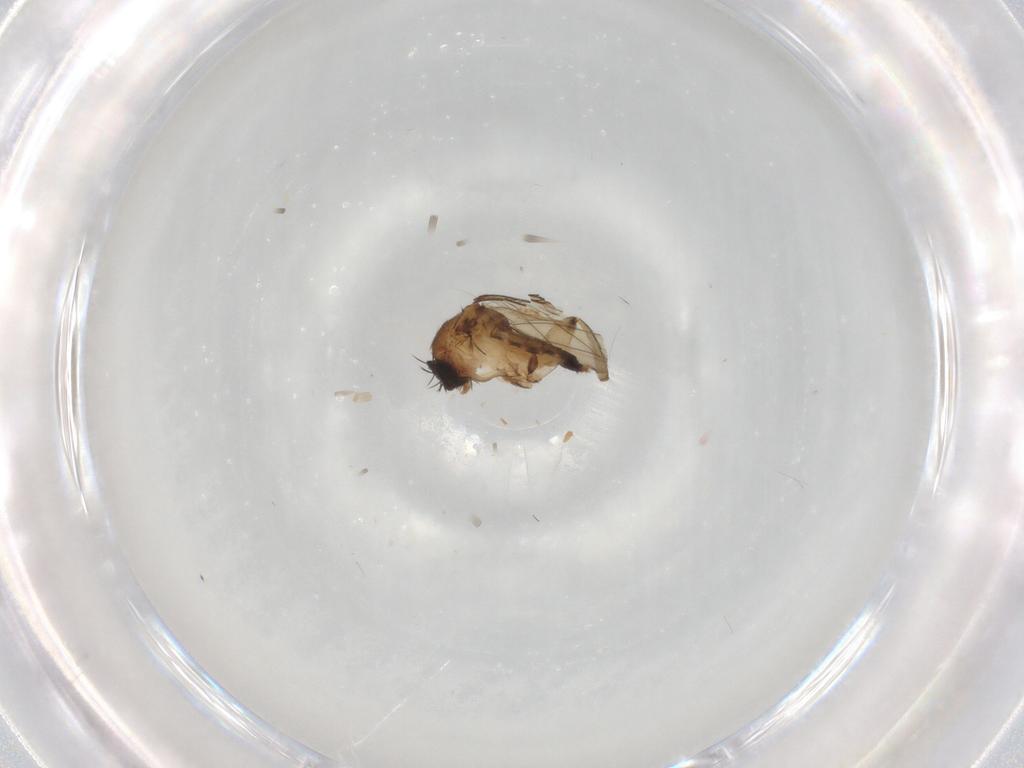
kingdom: Animalia
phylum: Arthropoda
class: Insecta
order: Diptera
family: Phoridae
